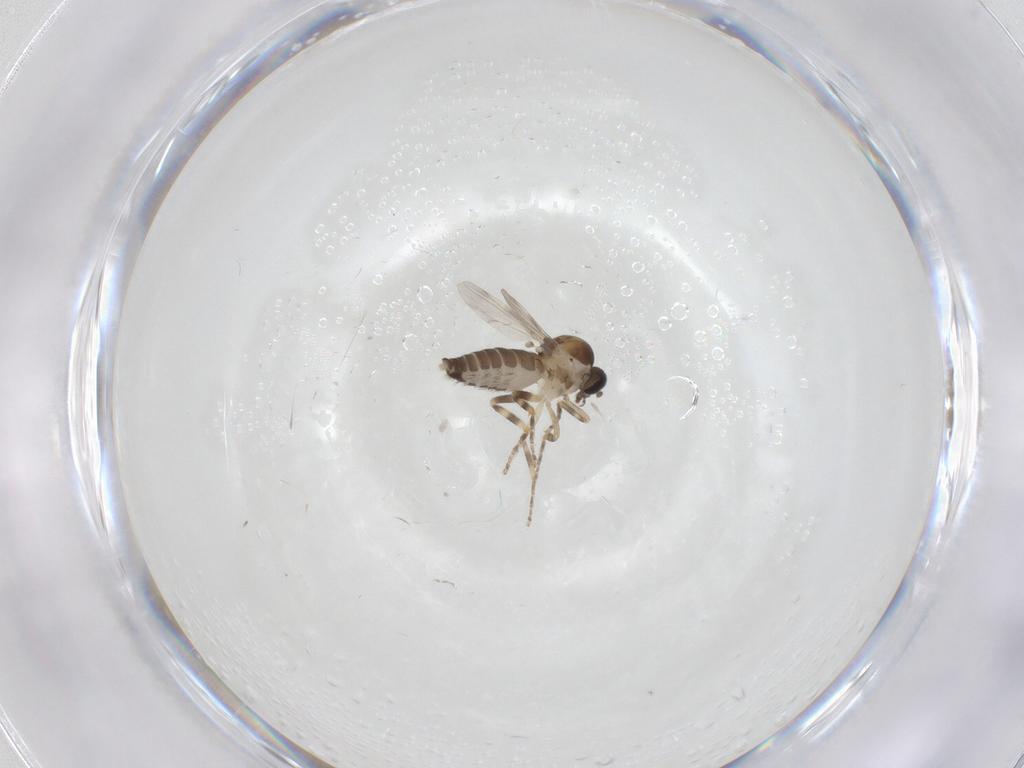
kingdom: Animalia
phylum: Arthropoda
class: Insecta
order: Diptera
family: Ceratopogonidae
